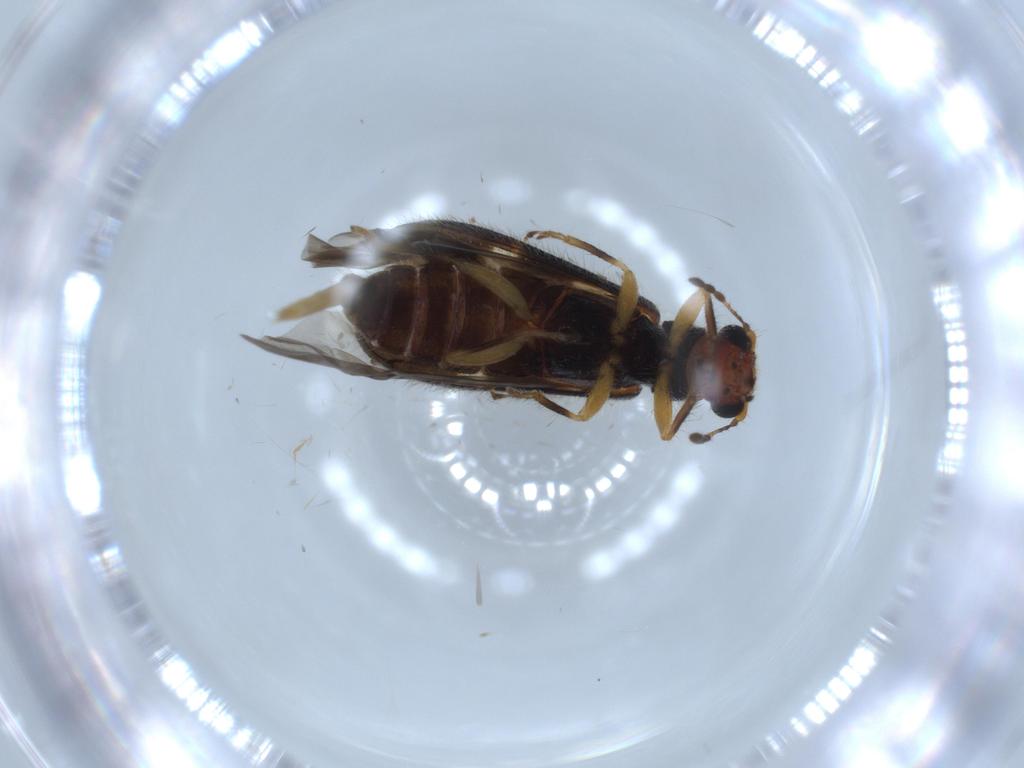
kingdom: Animalia
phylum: Arthropoda
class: Insecta
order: Coleoptera
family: Cleridae
